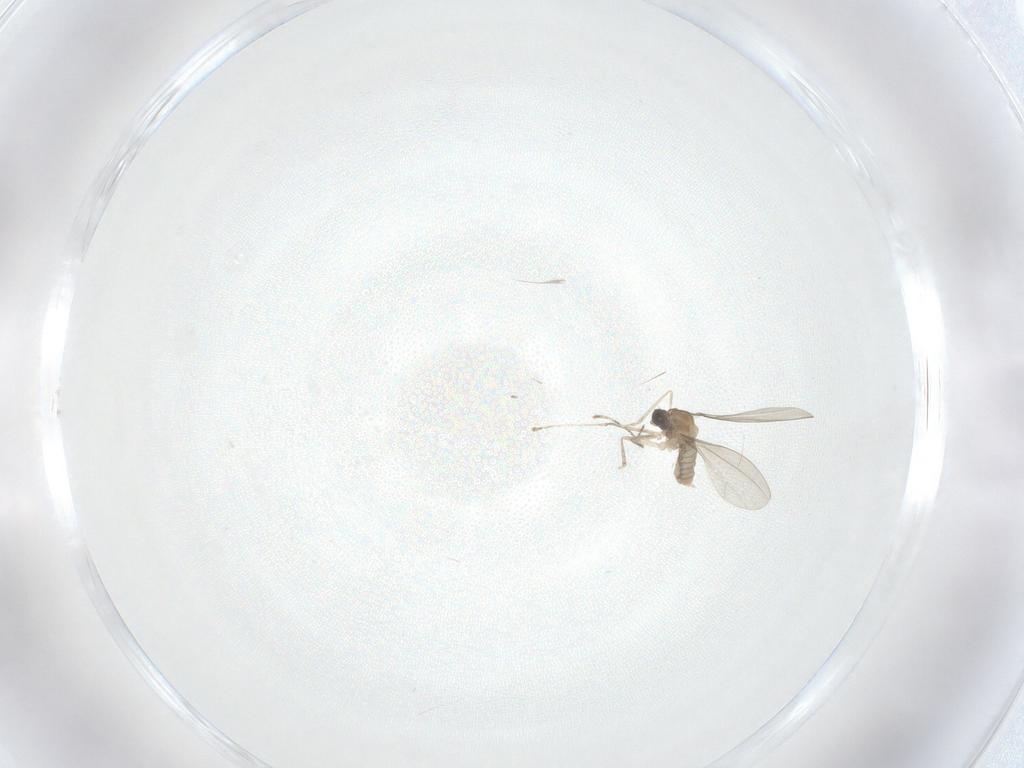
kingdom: Animalia
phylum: Arthropoda
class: Insecta
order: Diptera
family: Cecidomyiidae
